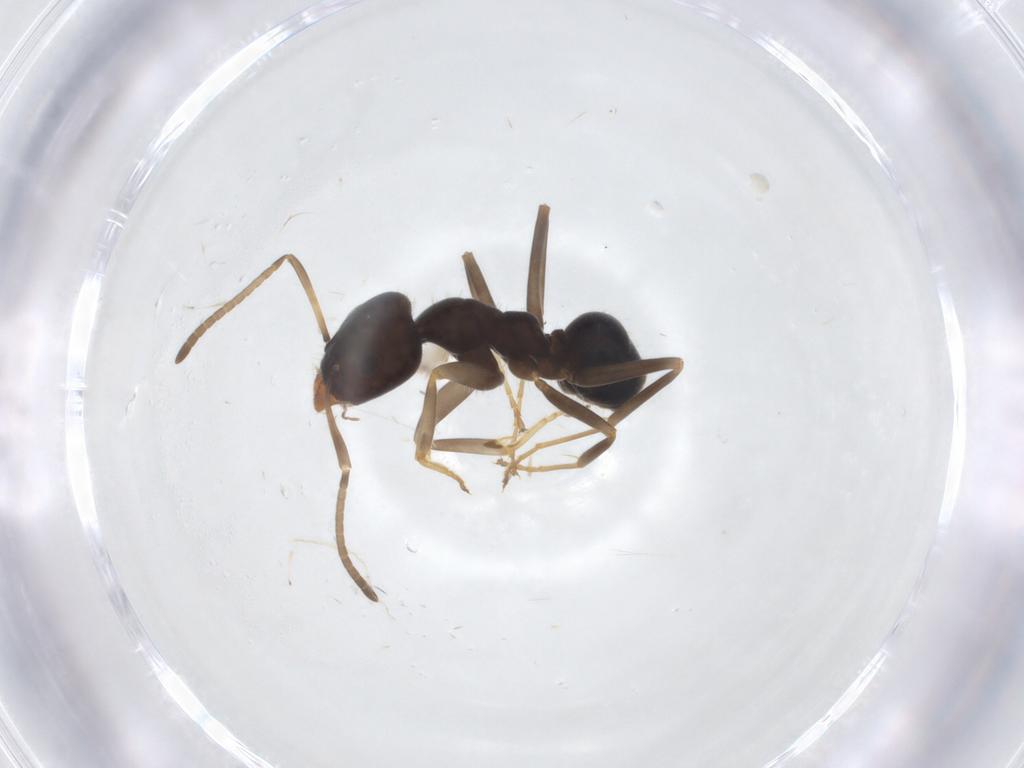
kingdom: Animalia
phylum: Arthropoda
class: Insecta
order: Hymenoptera
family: Formicidae
